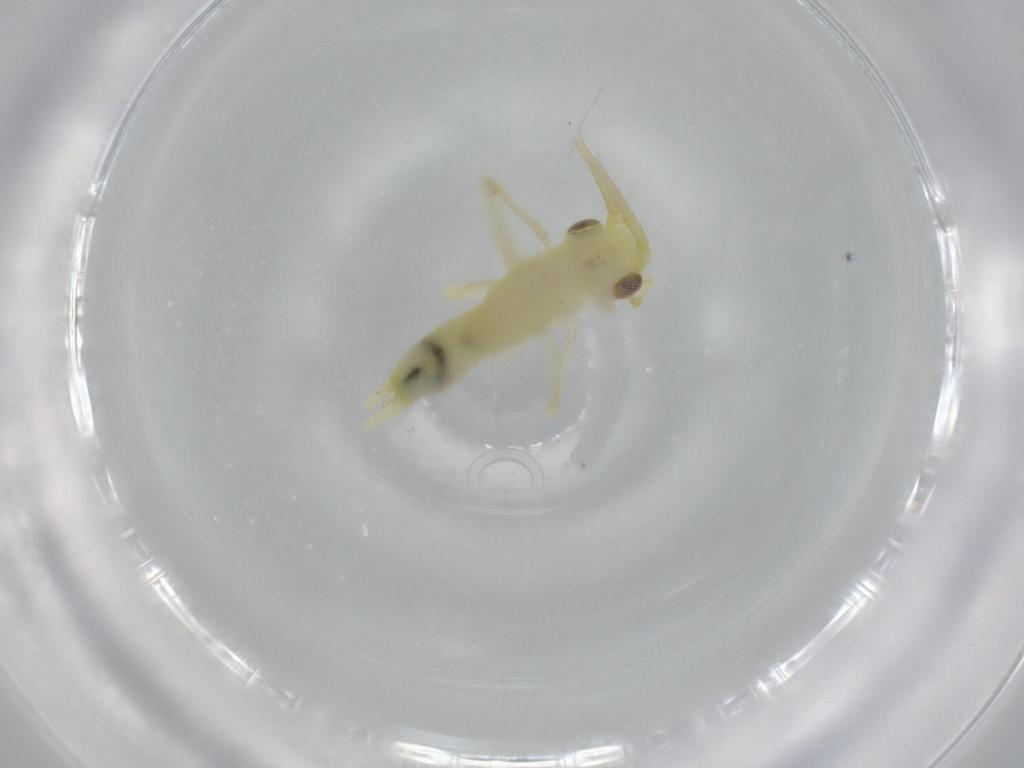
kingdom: Animalia
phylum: Arthropoda
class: Insecta
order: Orthoptera
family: Trigonidiidae
